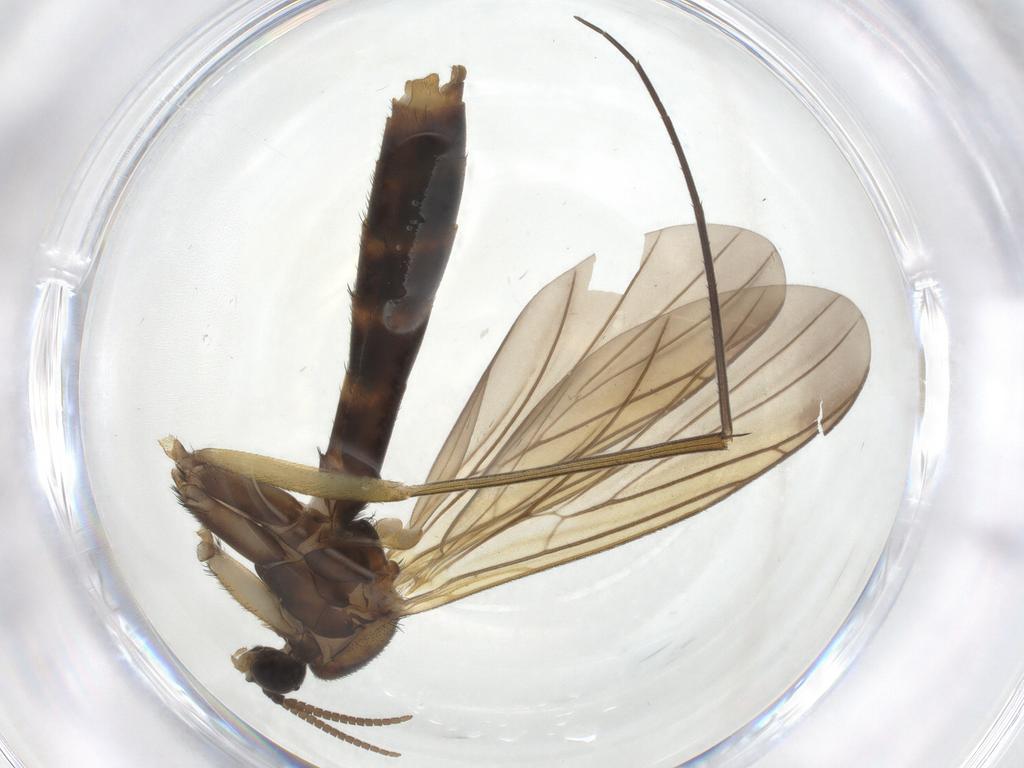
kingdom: Animalia
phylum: Arthropoda
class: Insecta
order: Diptera
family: Keroplatidae
